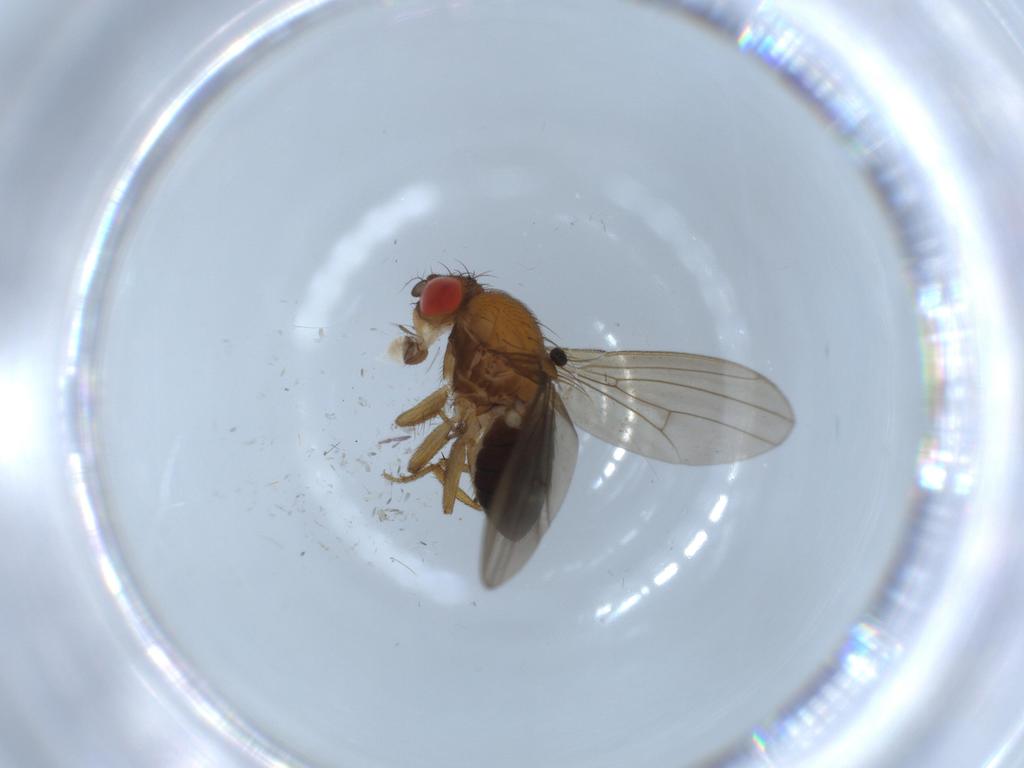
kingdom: Animalia
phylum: Arthropoda
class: Insecta
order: Diptera
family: Drosophilidae
